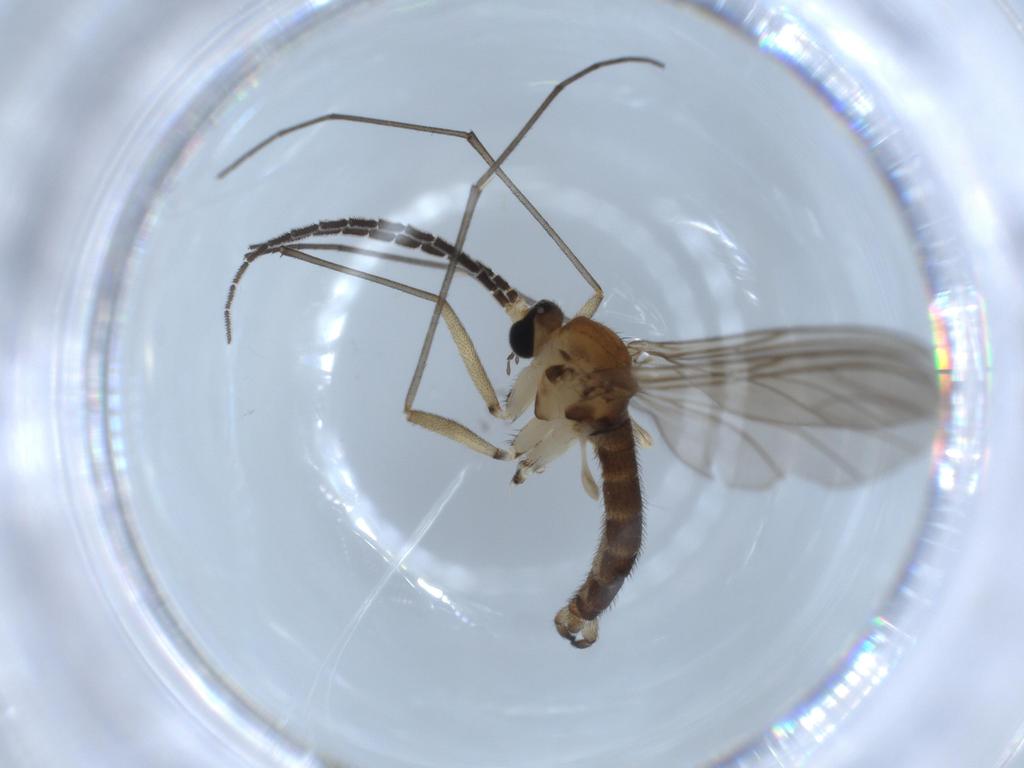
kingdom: Animalia
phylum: Arthropoda
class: Insecta
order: Diptera
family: Sciaridae
